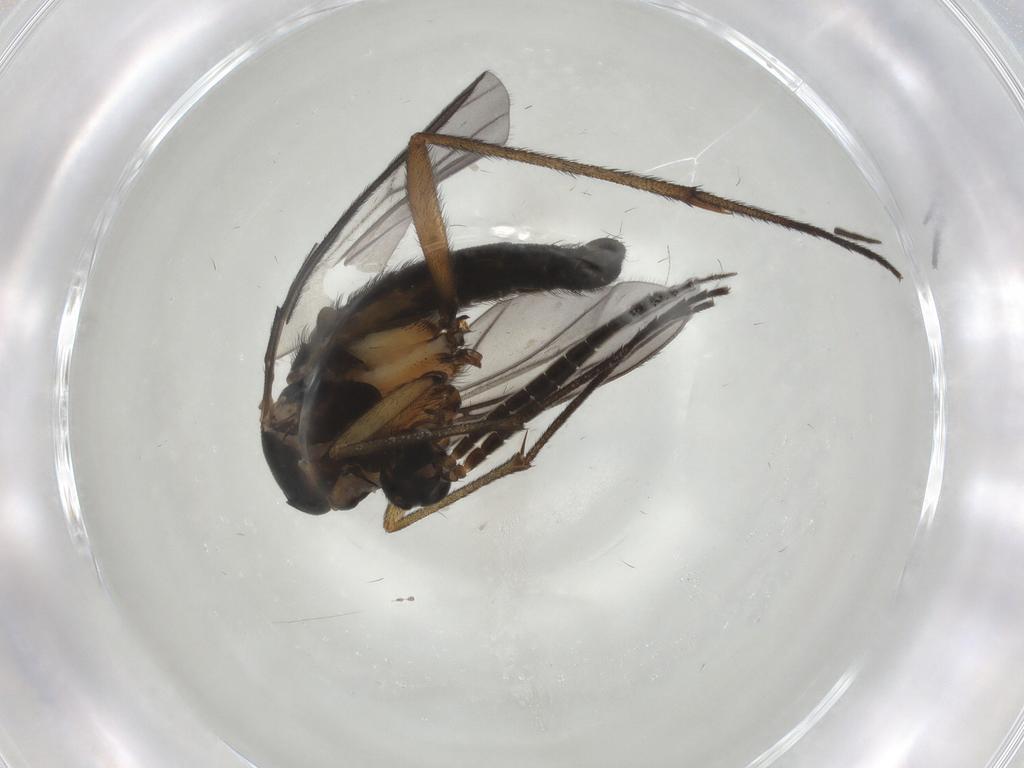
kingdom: Animalia
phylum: Arthropoda
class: Insecta
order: Diptera
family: Sciaridae
